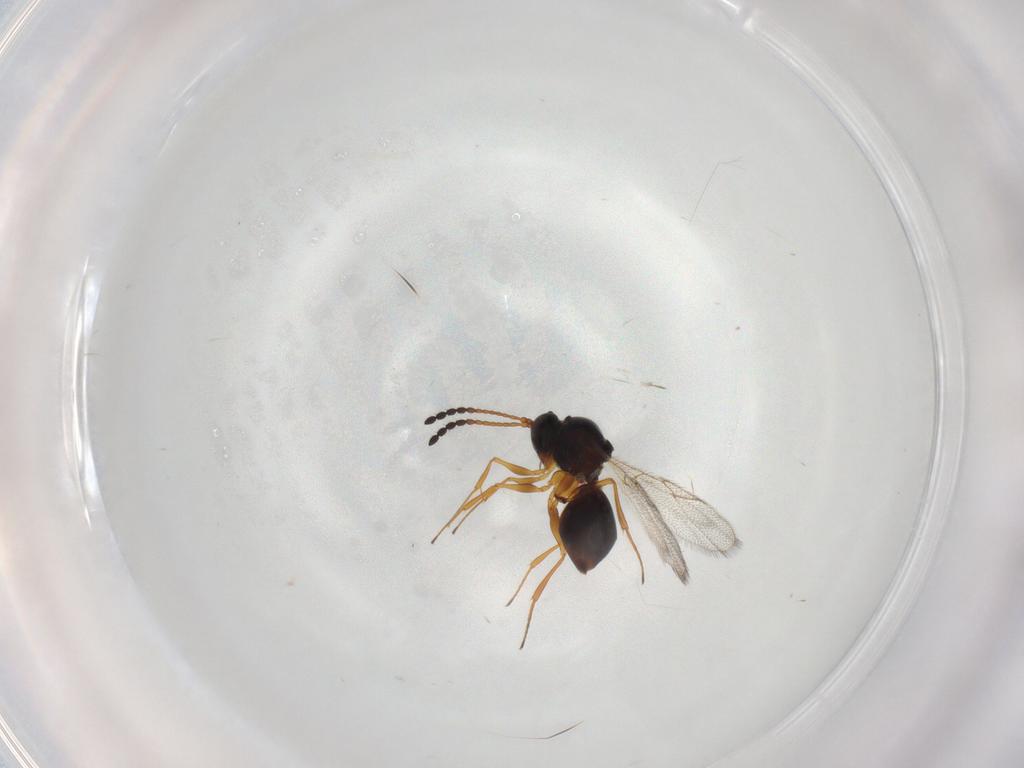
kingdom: Animalia
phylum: Arthropoda
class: Insecta
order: Hymenoptera
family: Figitidae
